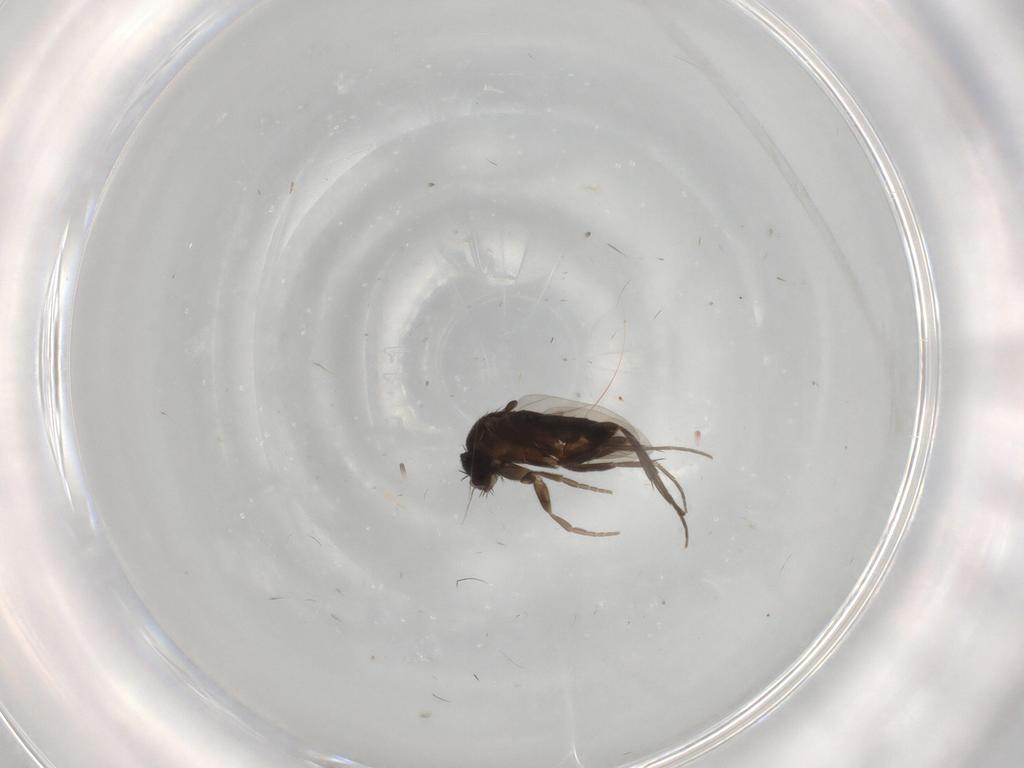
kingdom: Animalia
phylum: Arthropoda
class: Insecta
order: Diptera
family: Phoridae
